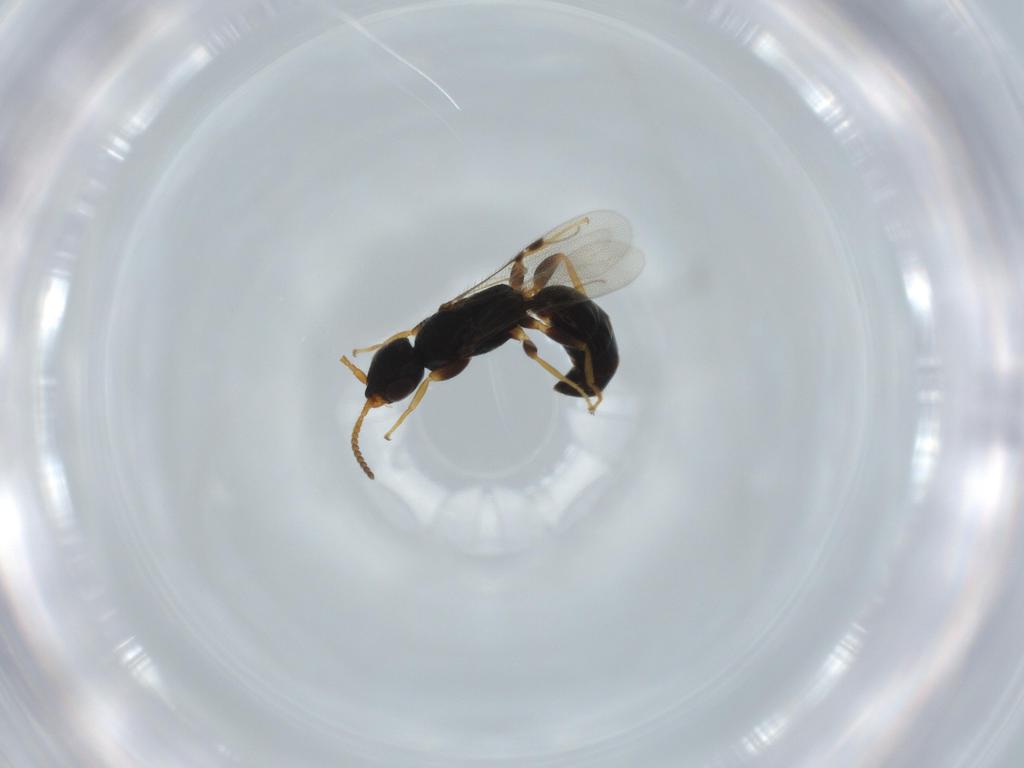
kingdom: Animalia
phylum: Arthropoda
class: Insecta
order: Hymenoptera
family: Bethylidae
